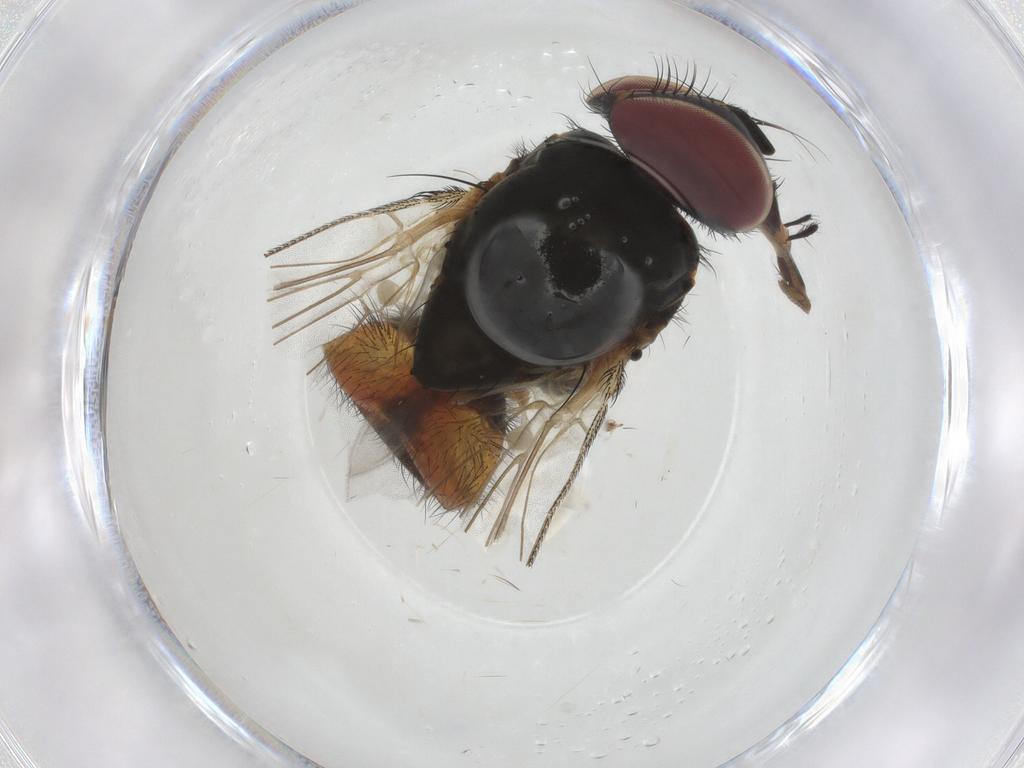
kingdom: Animalia
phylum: Arthropoda
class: Insecta
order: Diptera
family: Fannia
